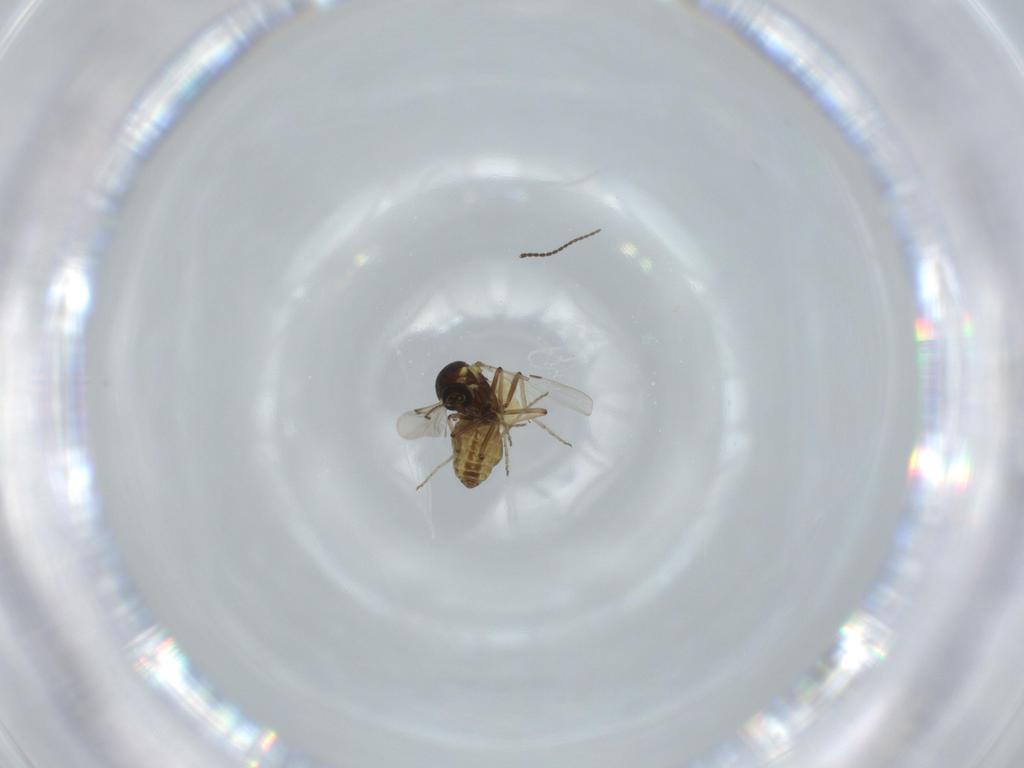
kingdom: Animalia
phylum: Arthropoda
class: Insecta
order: Diptera
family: Ceratopogonidae
